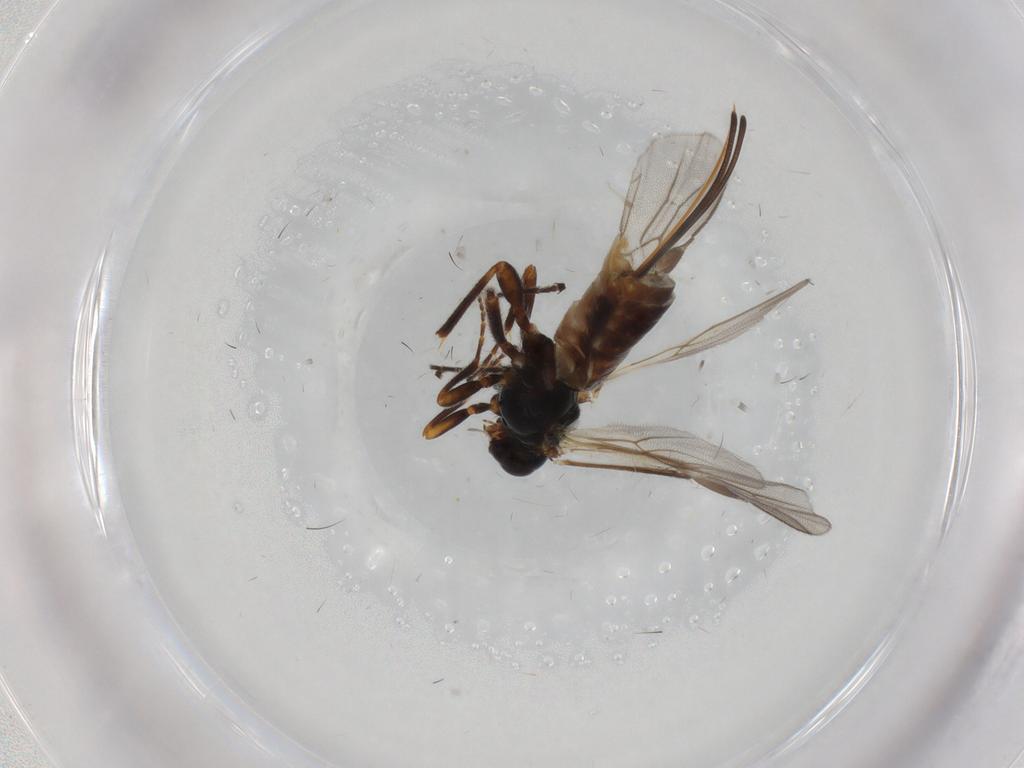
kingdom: Animalia
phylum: Arthropoda
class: Insecta
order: Hymenoptera
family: Braconidae
